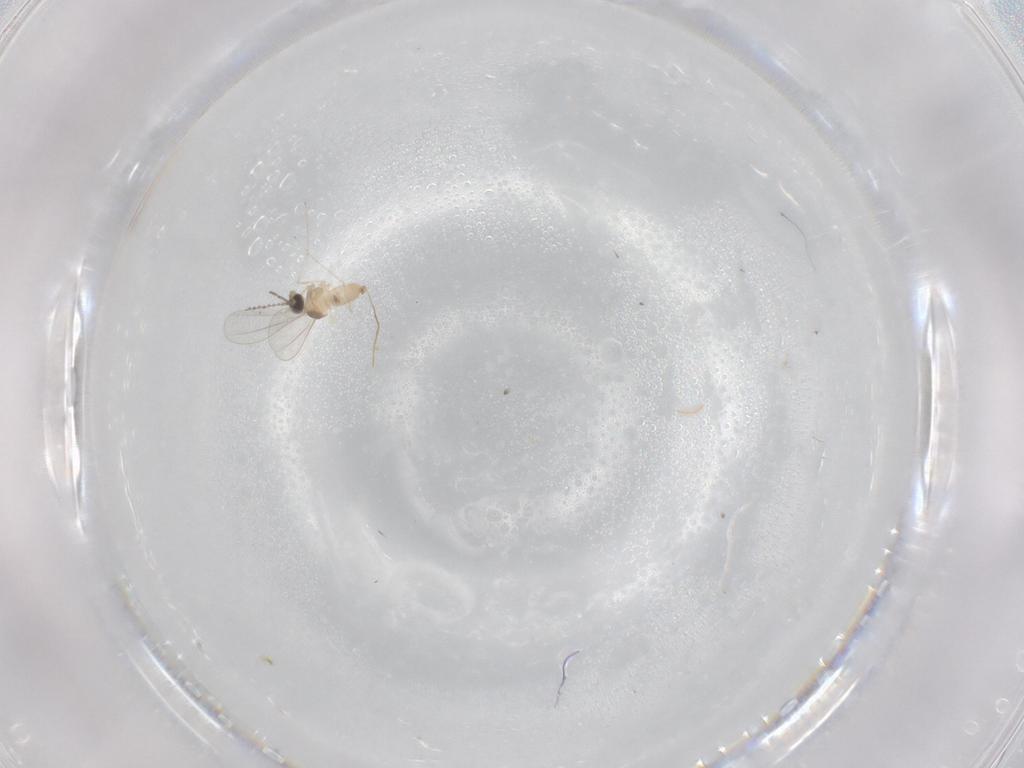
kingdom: Animalia
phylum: Arthropoda
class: Insecta
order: Diptera
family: Phoridae
